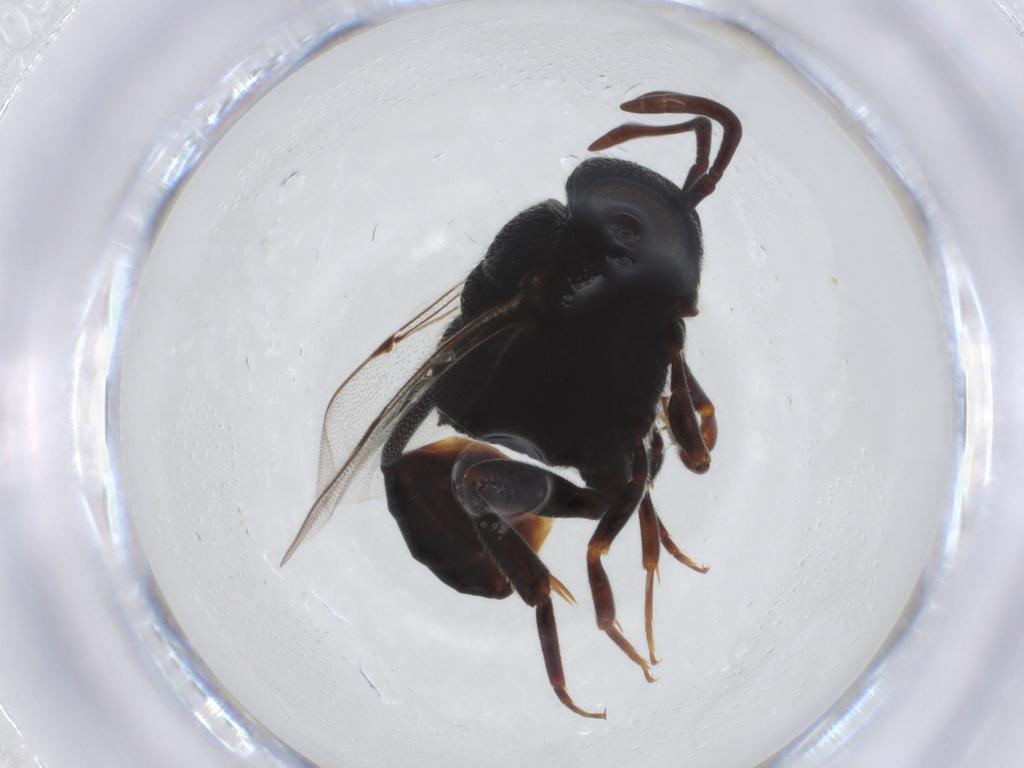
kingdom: Animalia
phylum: Arthropoda
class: Insecta
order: Hymenoptera
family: Evaniidae
